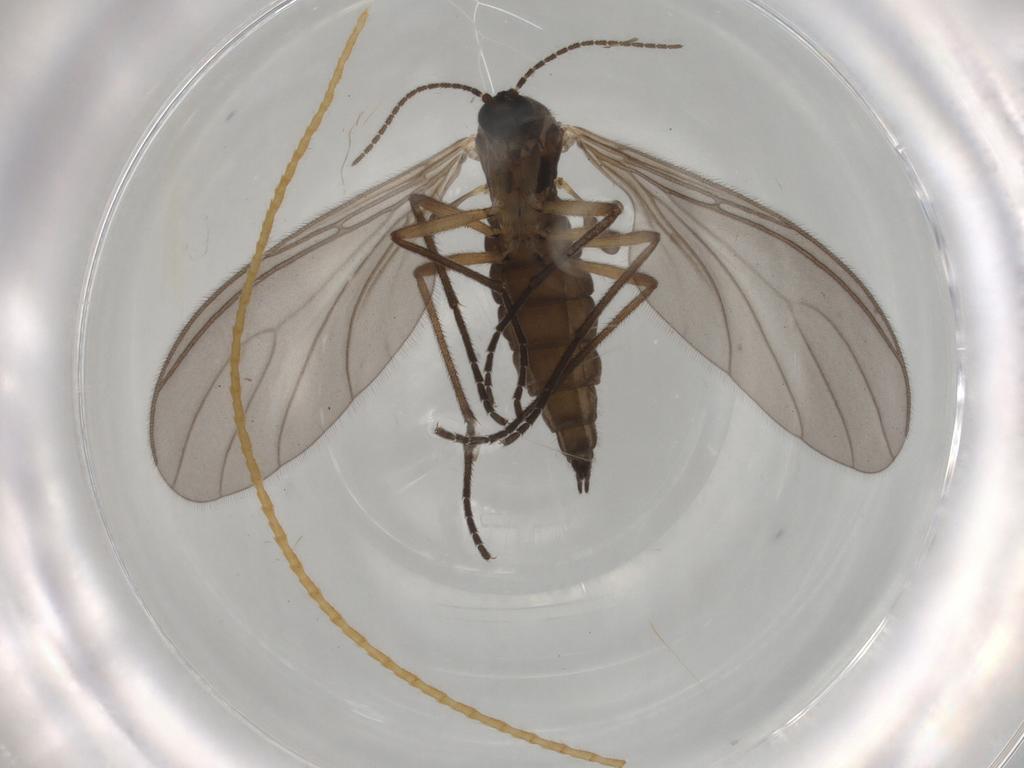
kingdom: Animalia
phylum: Arthropoda
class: Insecta
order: Diptera
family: Sciaridae
